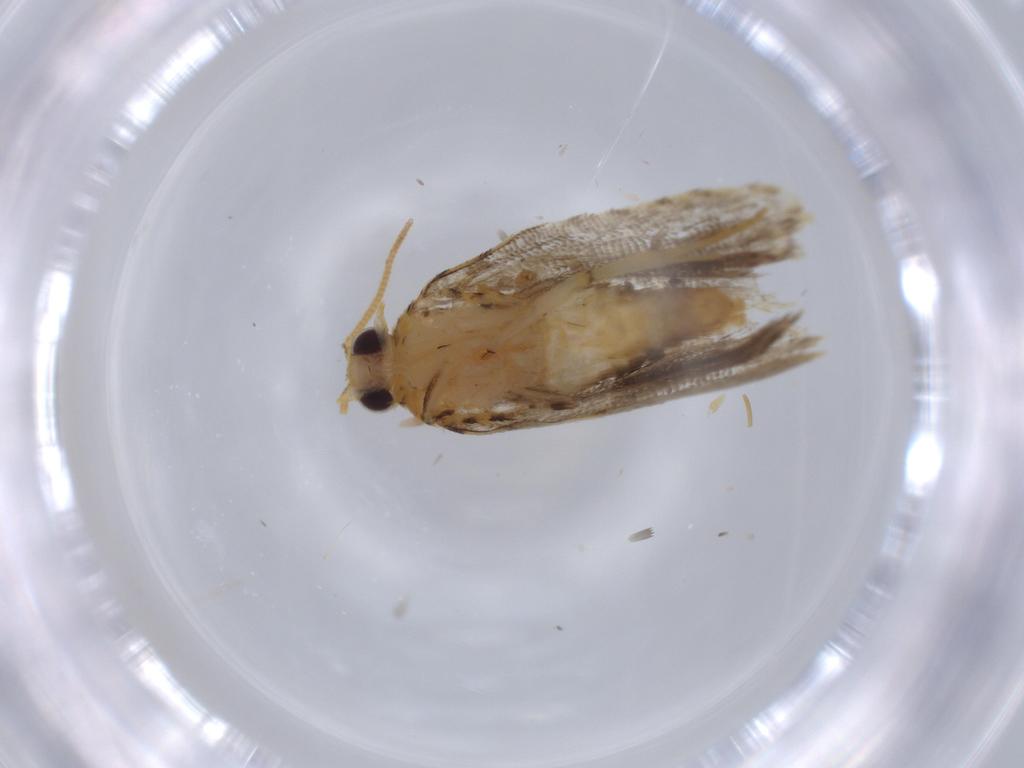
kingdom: Animalia
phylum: Arthropoda
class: Insecta
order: Lepidoptera
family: Tortricidae
